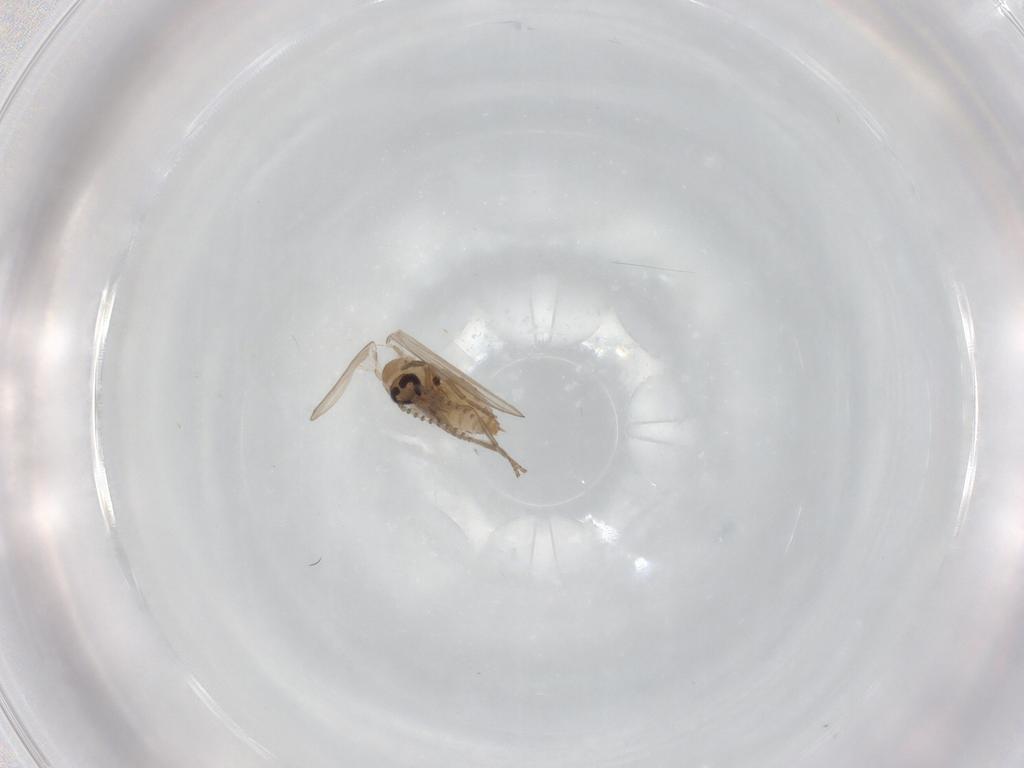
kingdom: Animalia
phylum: Arthropoda
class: Insecta
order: Diptera
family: Psychodidae
